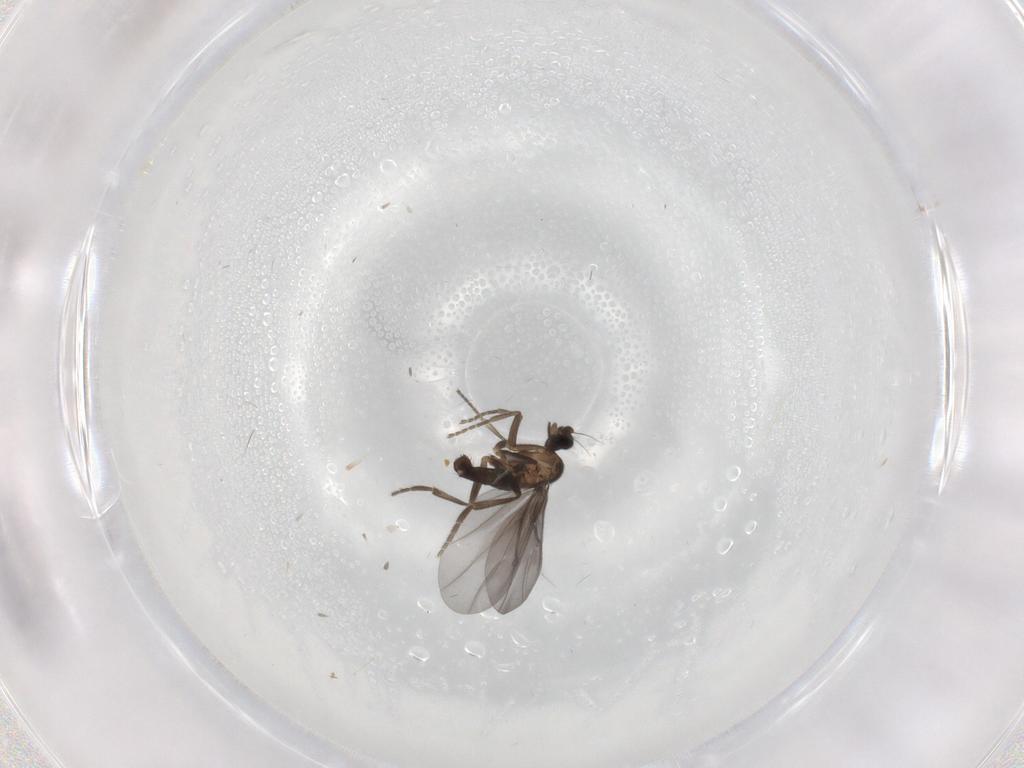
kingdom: Animalia
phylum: Arthropoda
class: Insecta
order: Diptera
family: Phoridae
